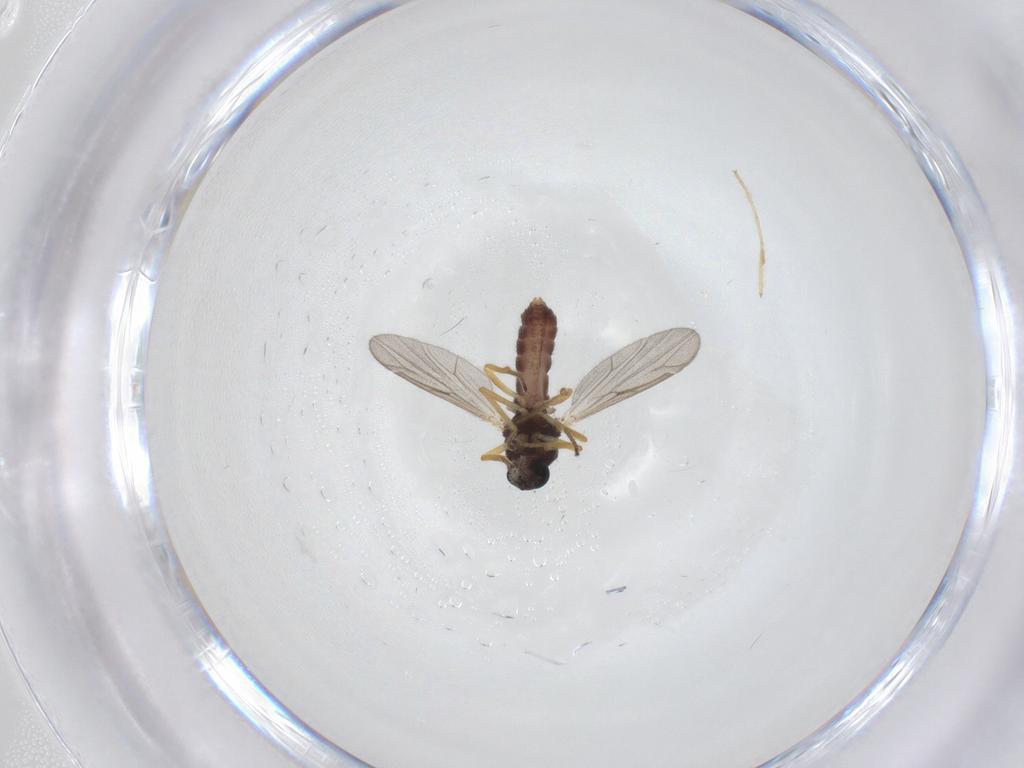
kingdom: Animalia
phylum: Arthropoda
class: Insecta
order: Diptera
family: Ceratopogonidae
